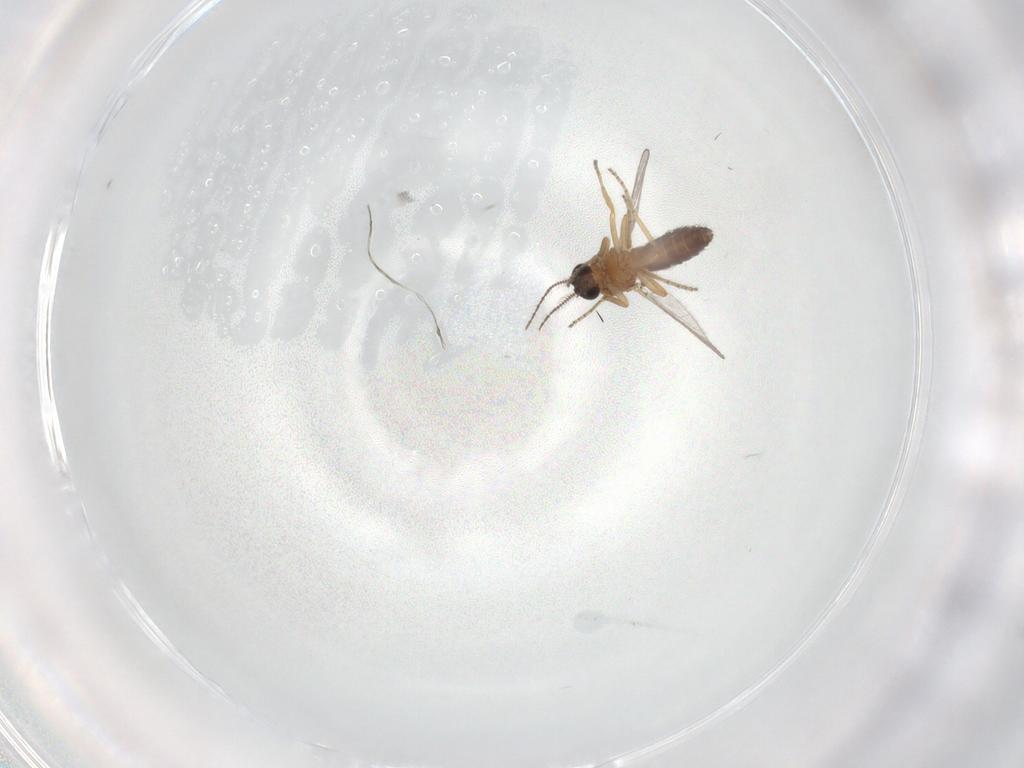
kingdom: Animalia
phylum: Arthropoda
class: Insecta
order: Diptera
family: Ceratopogonidae
